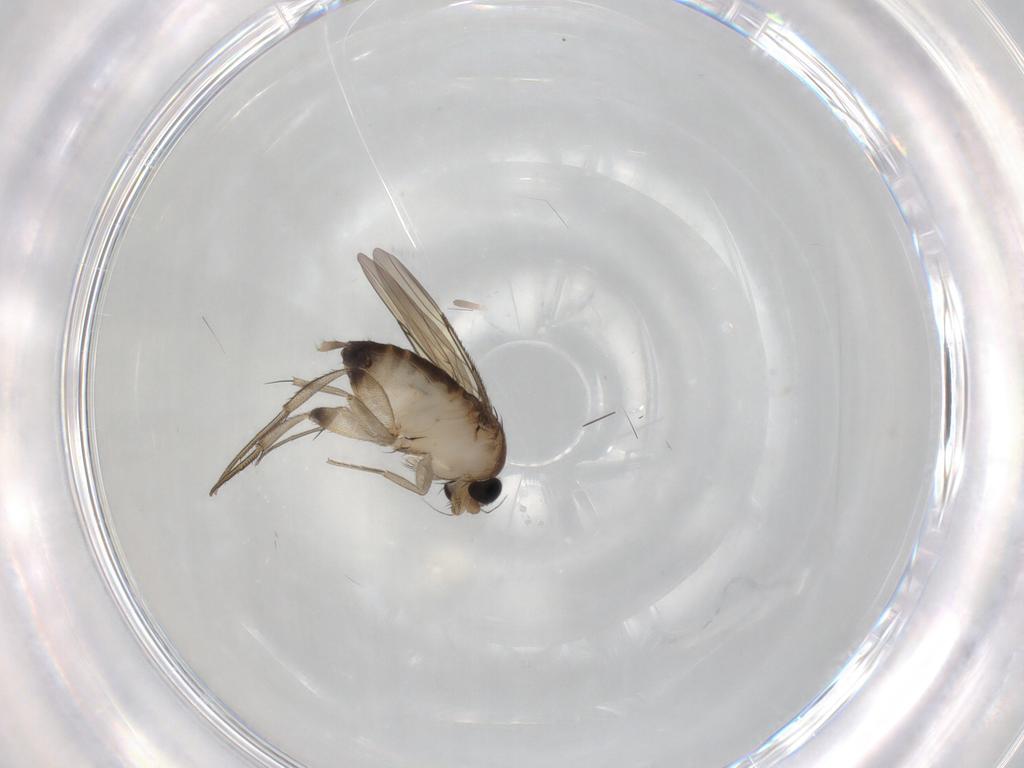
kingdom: Animalia
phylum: Arthropoda
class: Insecta
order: Diptera
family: Phoridae
